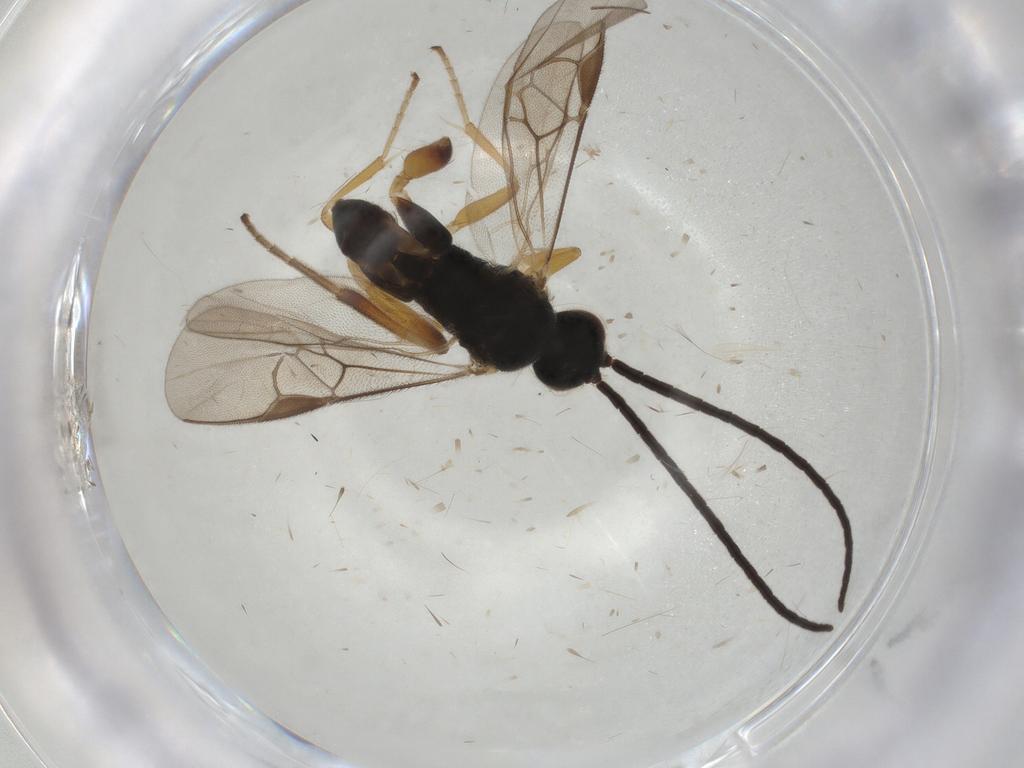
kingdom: Animalia
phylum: Arthropoda
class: Insecta
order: Hymenoptera
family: Braconidae
